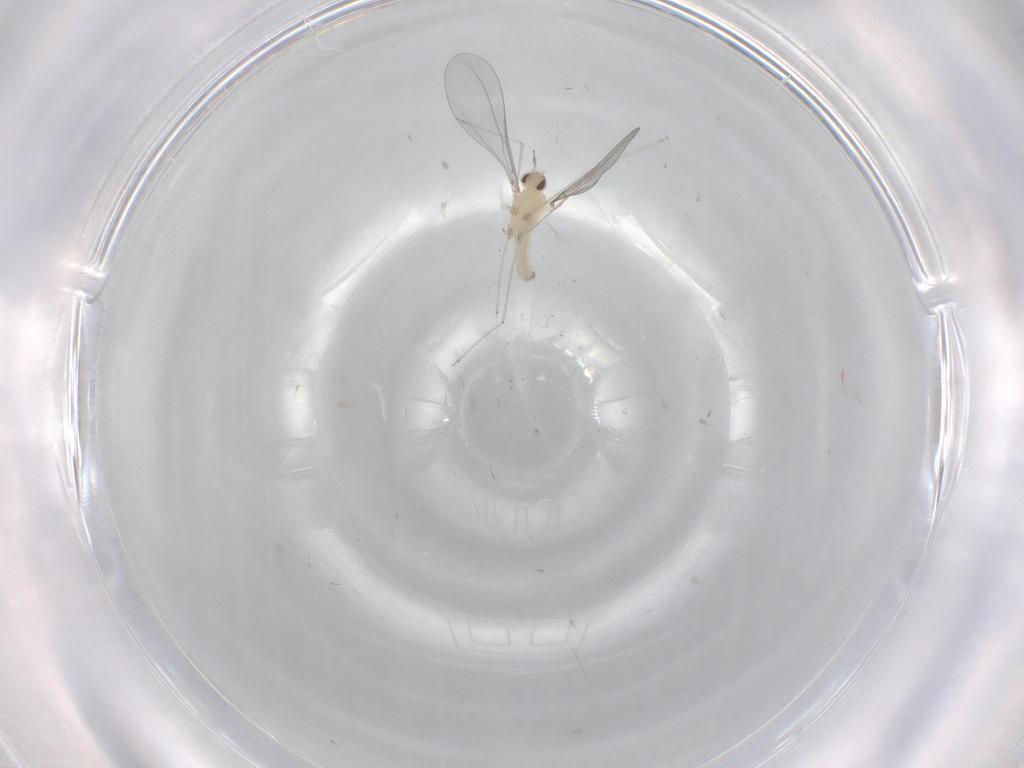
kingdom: Animalia
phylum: Arthropoda
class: Insecta
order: Diptera
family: Cecidomyiidae
